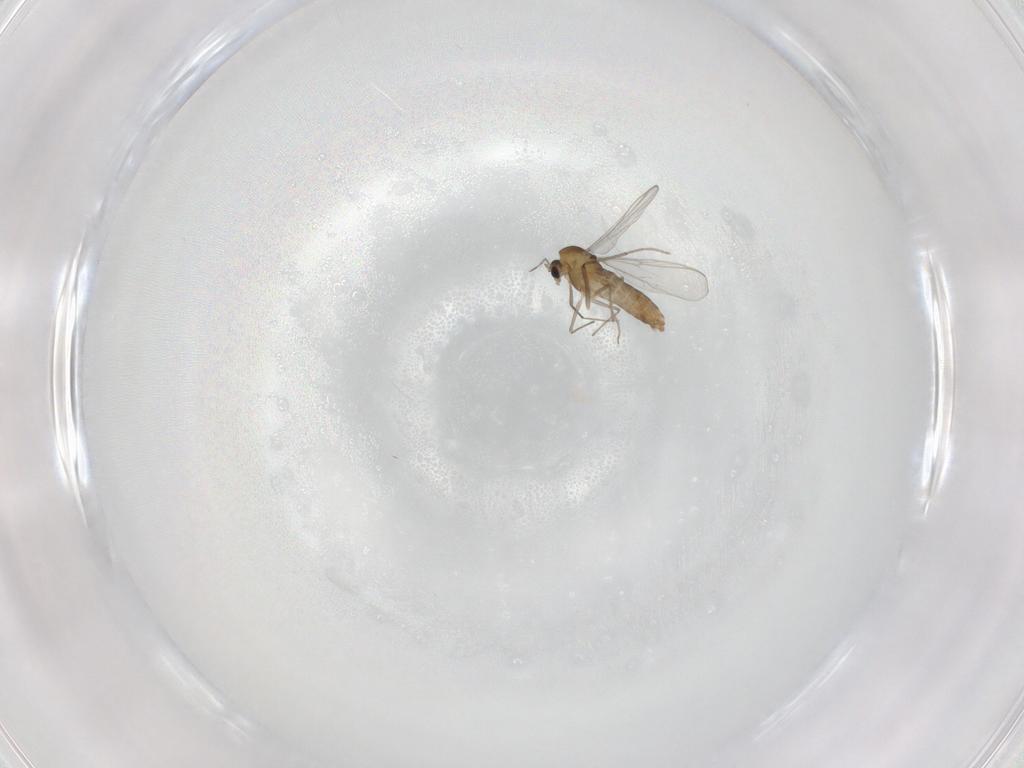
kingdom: Animalia
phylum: Arthropoda
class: Insecta
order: Diptera
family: Chironomidae
